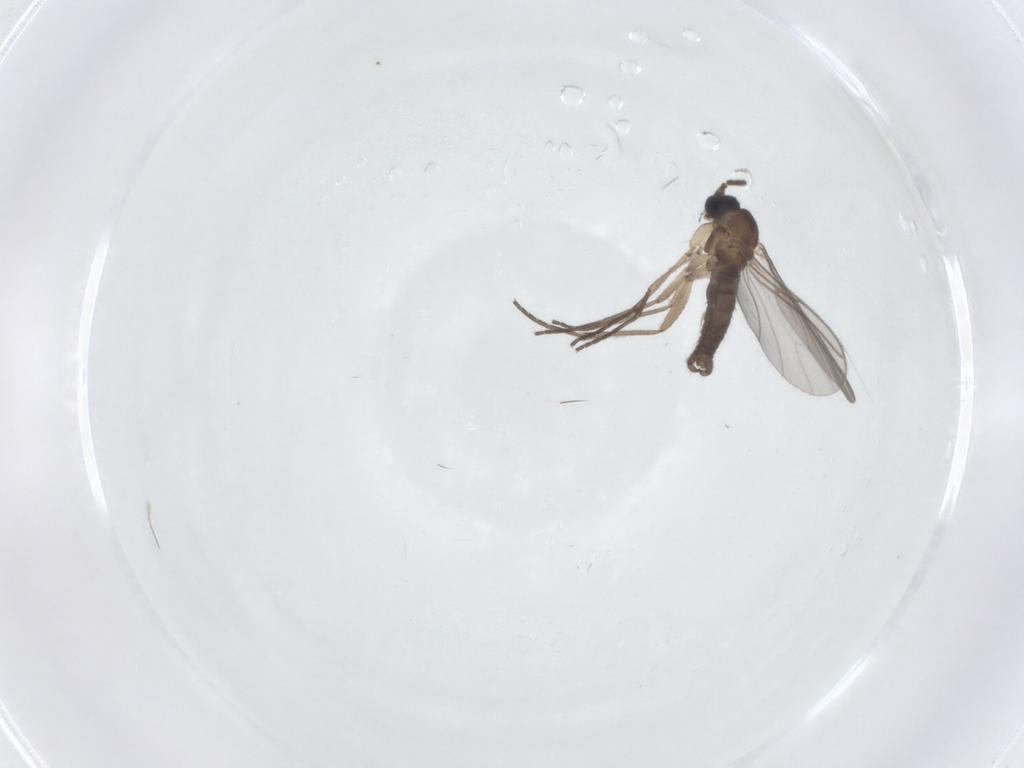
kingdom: Animalia
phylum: Arthropoda
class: Insecta
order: Diptera
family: Sciaridae
